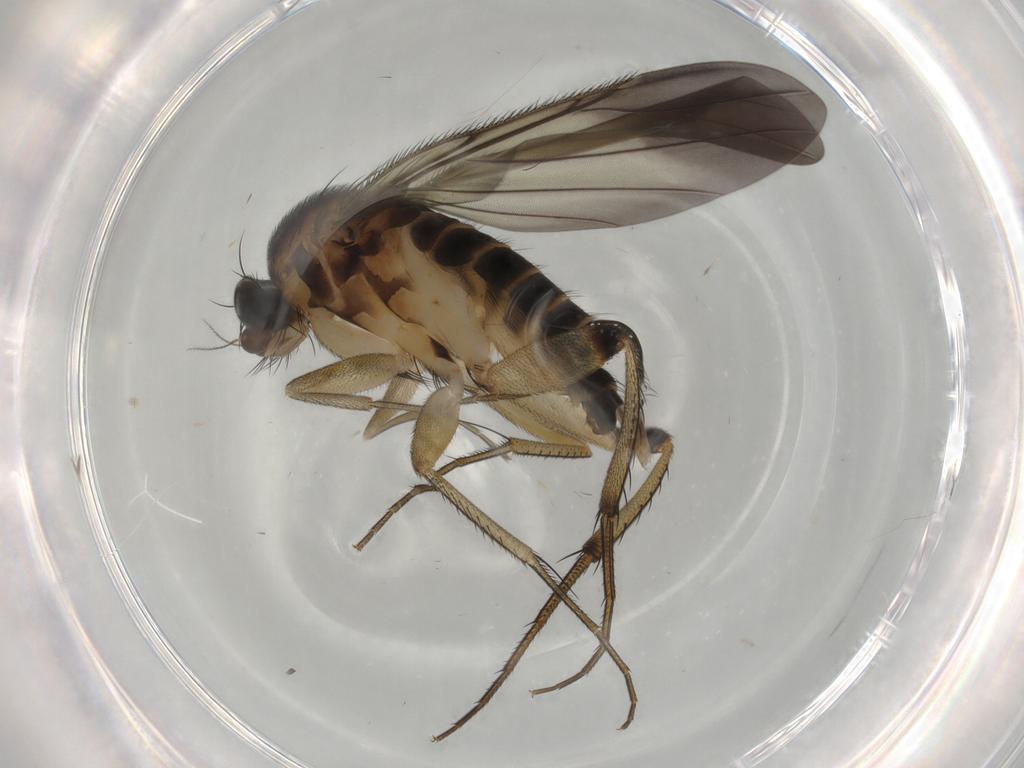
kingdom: Animalia
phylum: Arthropoda
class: Insecta
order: Diptera
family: Phoridae
